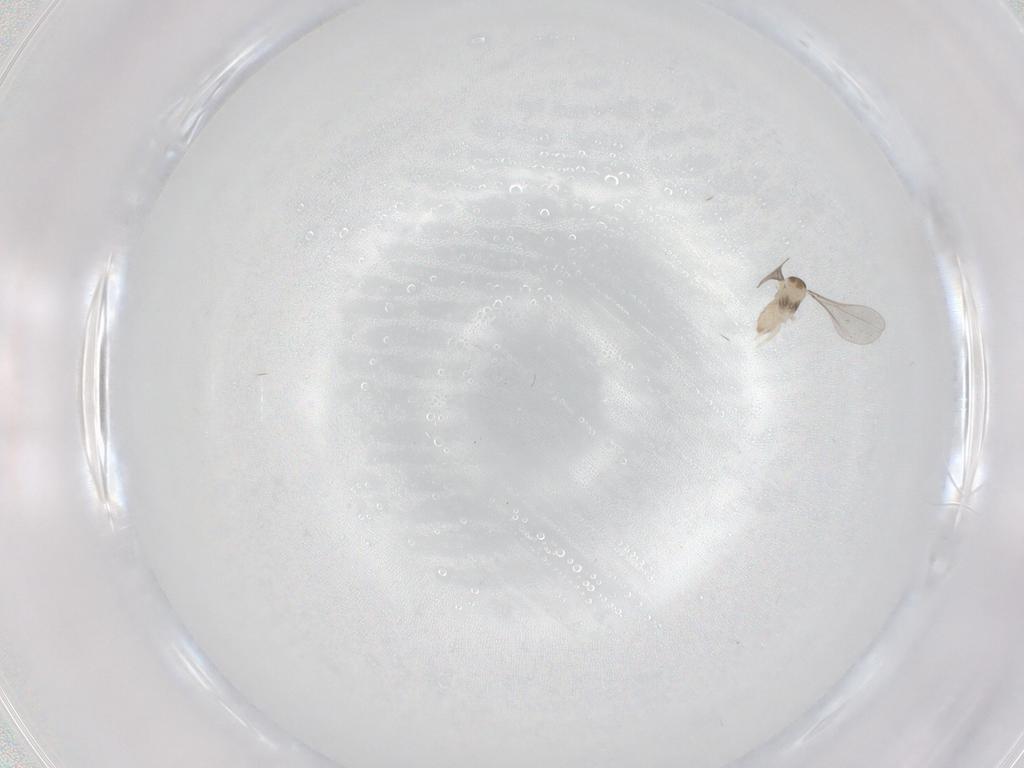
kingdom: Animalia
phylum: Arthropoda
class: Insecta
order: Diptera
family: Cecidomyiidae
